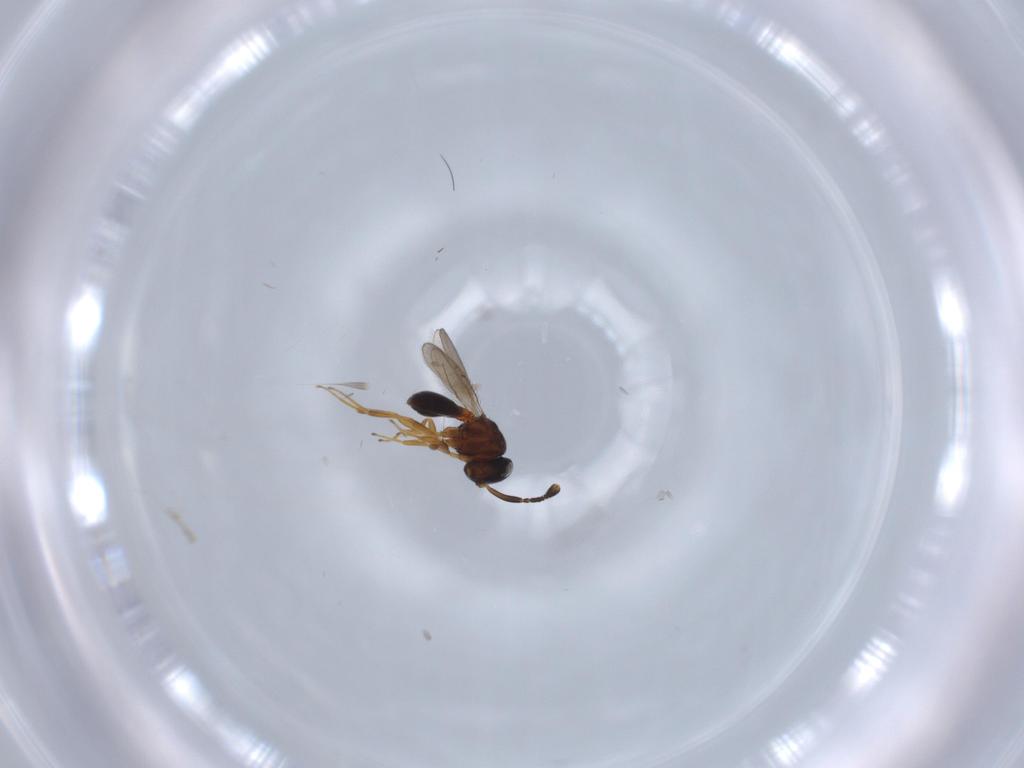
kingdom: Animalia
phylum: Arthropoda
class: Insecta
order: Hymenoptera
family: Scelionidae
